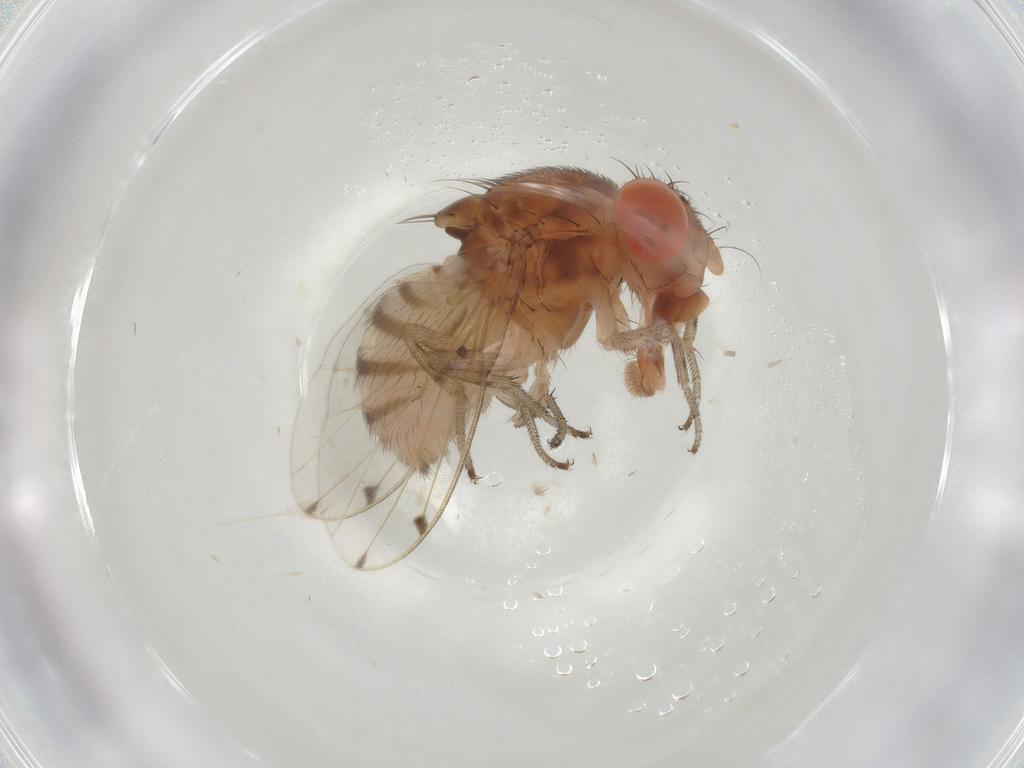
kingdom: Animalia
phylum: Arthropoda
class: Insecta
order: Diptera
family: Drosophilidae
